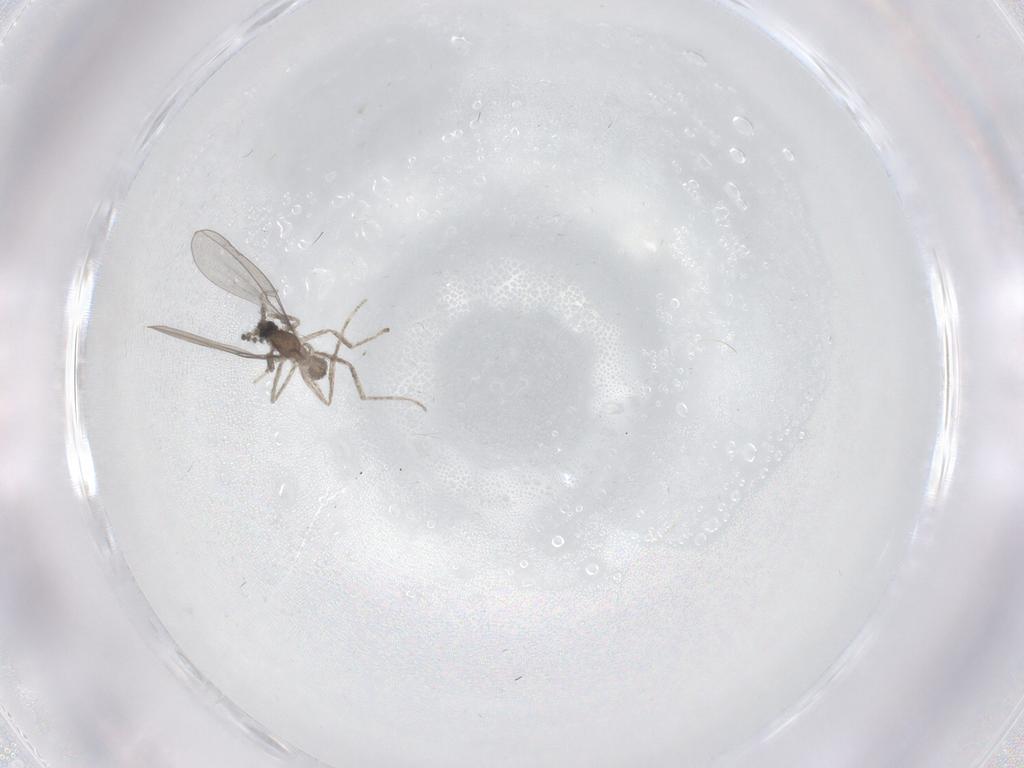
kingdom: Animalia
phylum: Arthropoda
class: Insecta
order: Diptera
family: Cecidomyiidae
